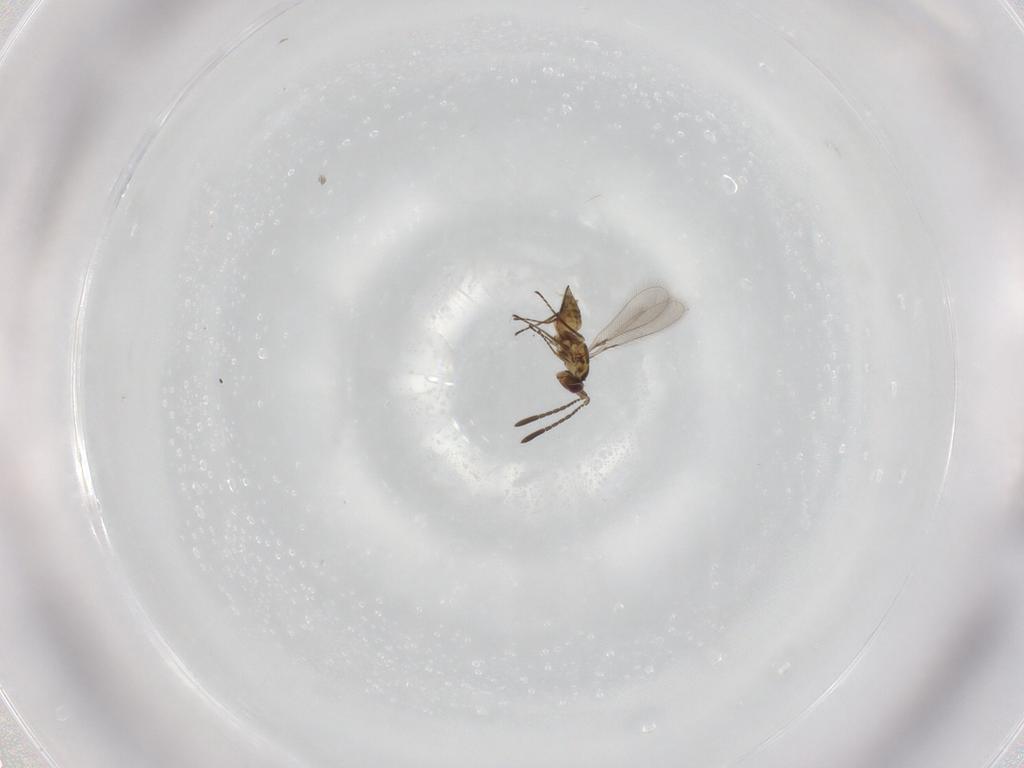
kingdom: Animalia
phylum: Arthropoda
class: Insecta
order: Hymenoptera
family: Mymaridae
